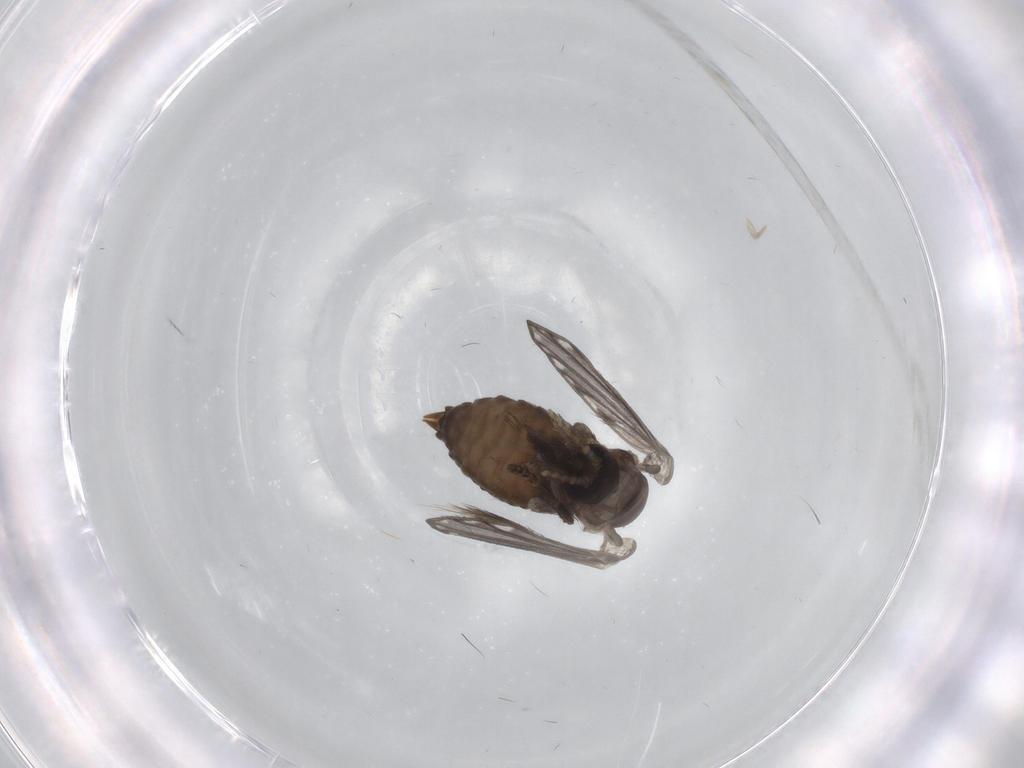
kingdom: Animalia
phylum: Arthropoda
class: Insecta
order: Diptera
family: Psychodidae
